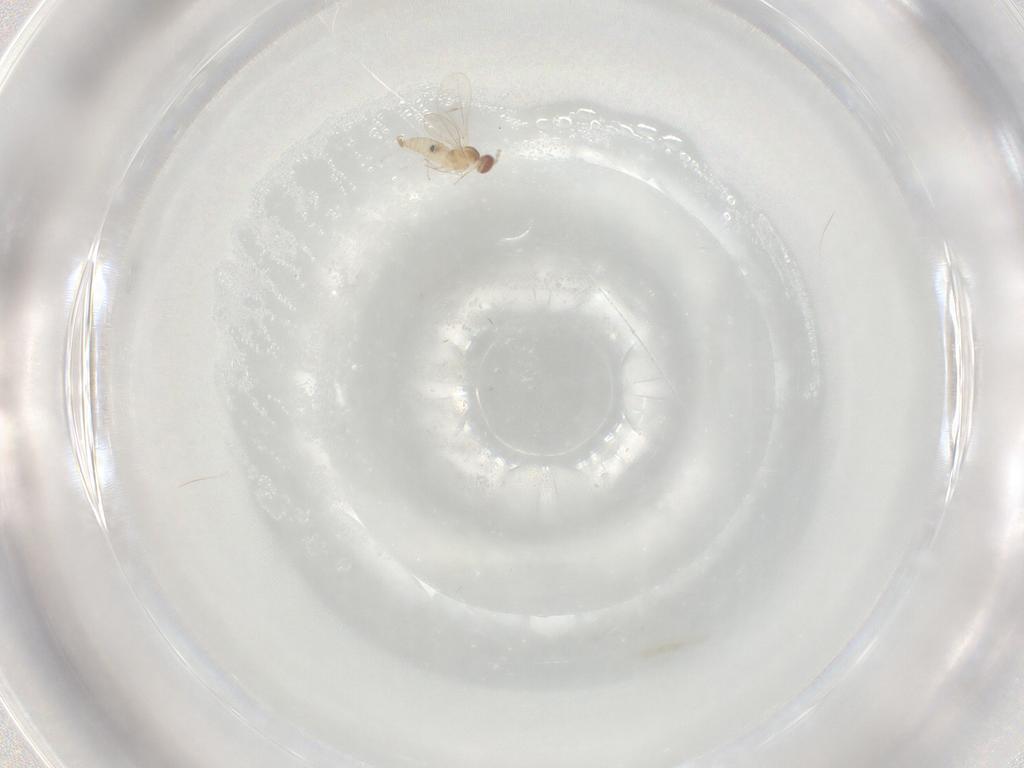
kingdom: Animalia
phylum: Arthropoda
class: Insecta
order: Diptera
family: Cecidomyiidae
